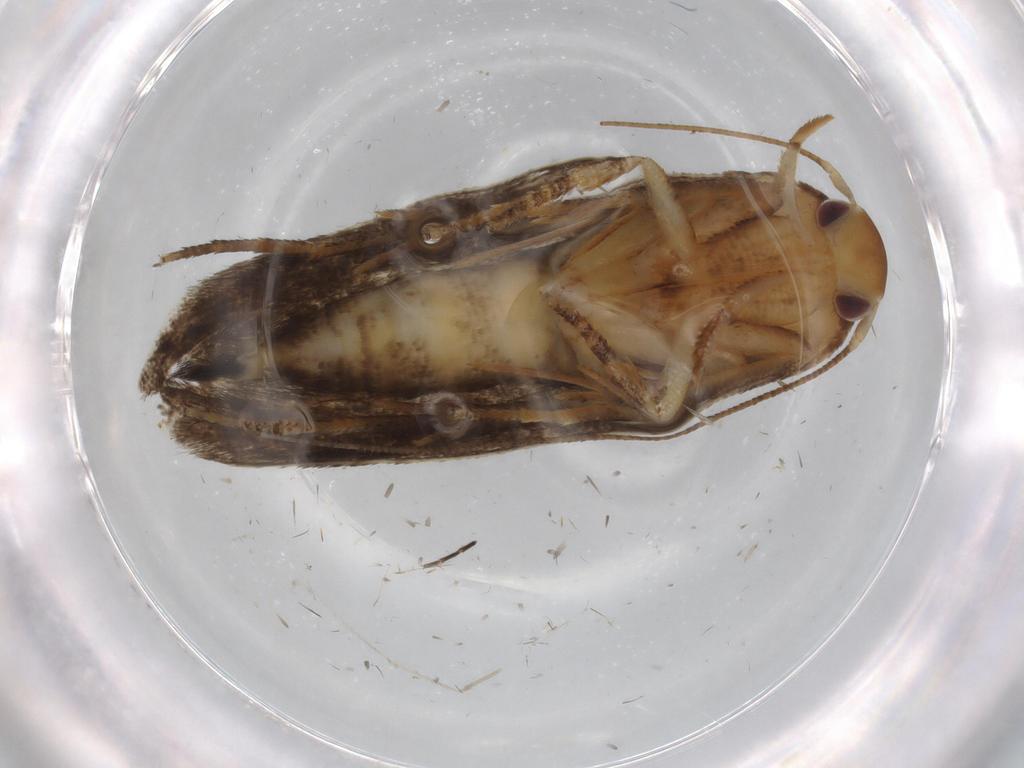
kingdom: Animalia
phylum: Arthropoda
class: Insecta
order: Lepidoptera
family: Momphidae
